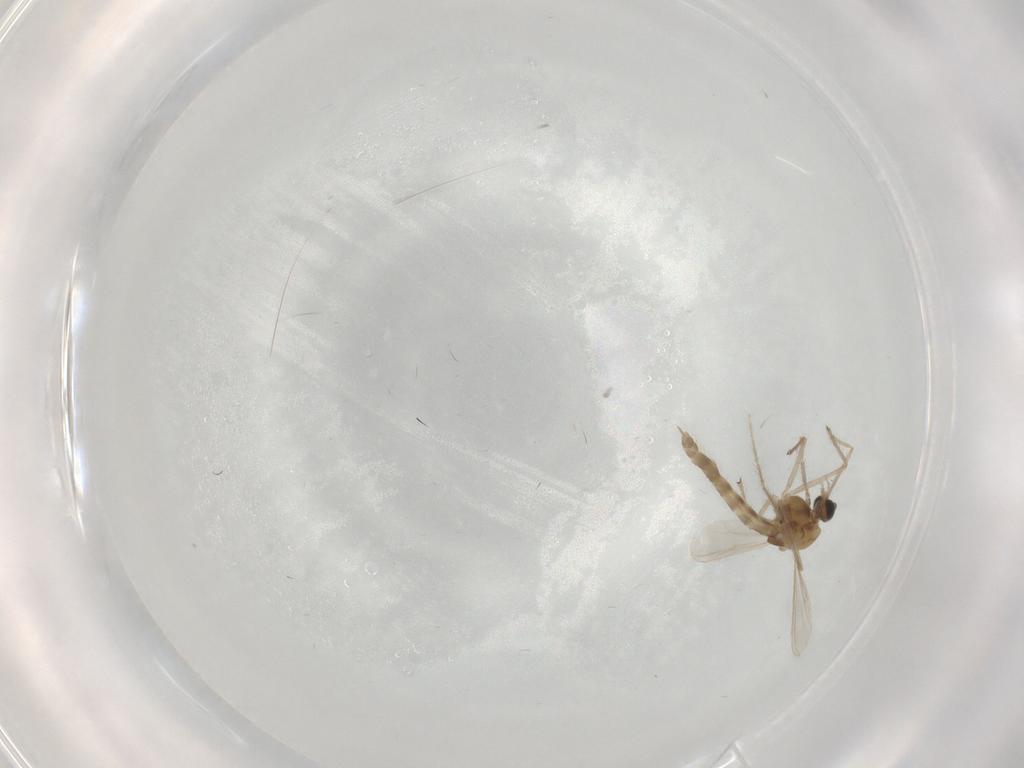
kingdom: Animalia
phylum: Arthropoda
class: Insecta
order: Diptera
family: Chironomidae
